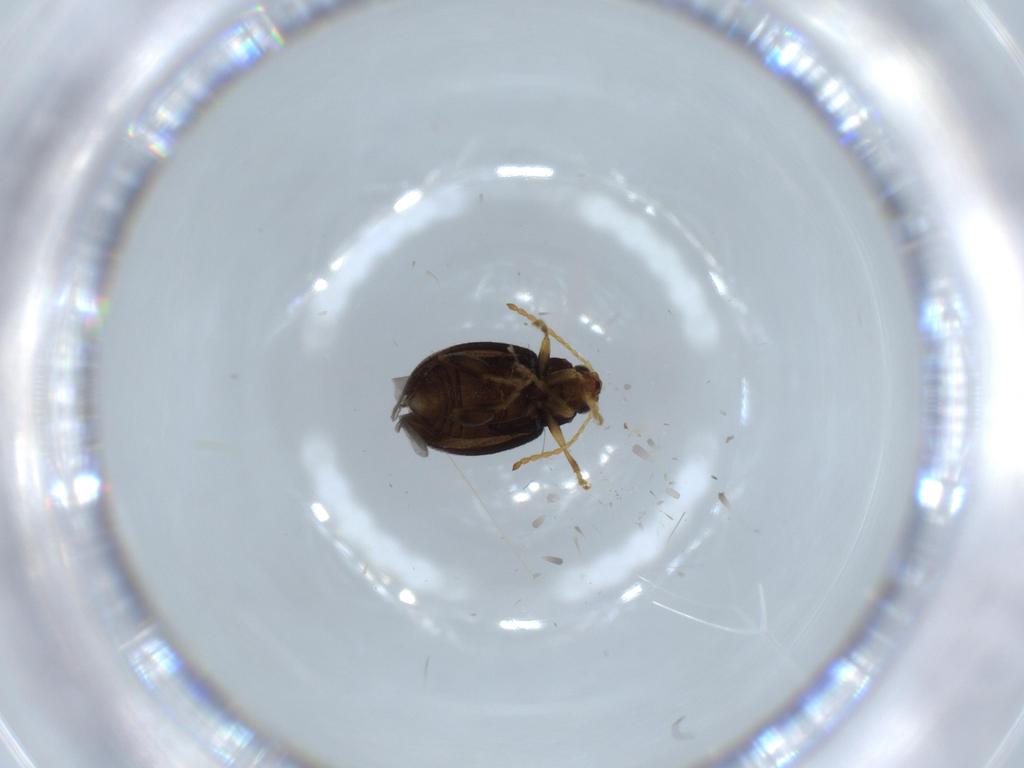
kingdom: Animalia
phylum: Arthropoda
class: Insecta
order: Coleoptera
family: Chrysomelidae
